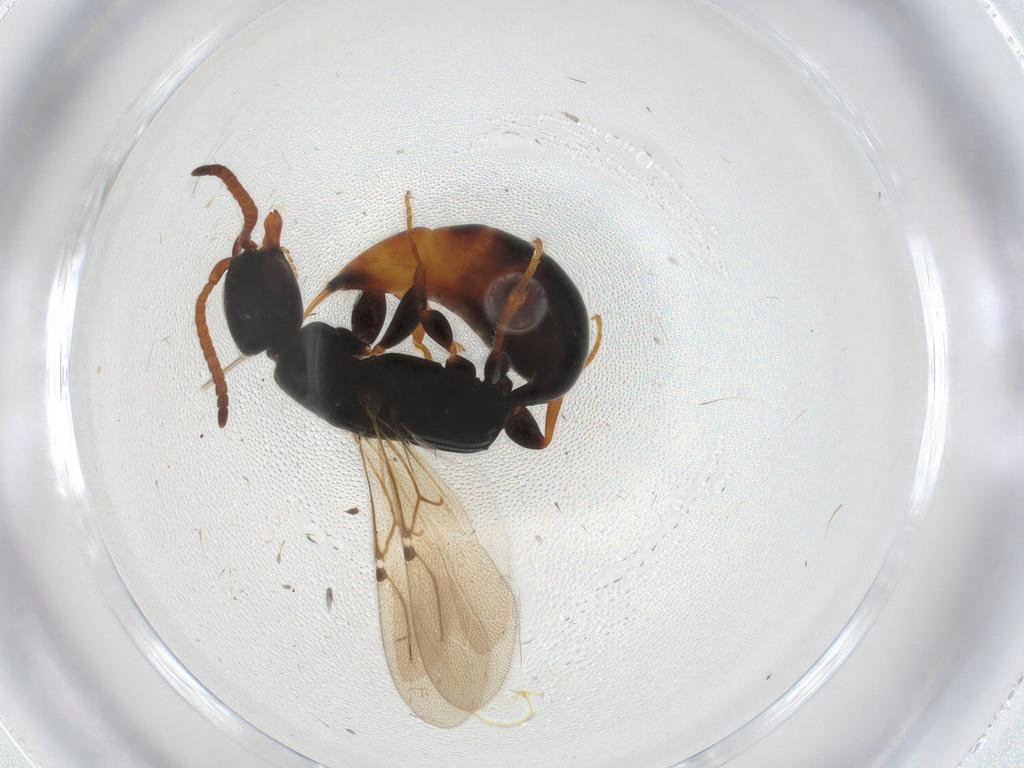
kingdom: Animalia
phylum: Arthropoda
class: Insecta
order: Hymenoptera
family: Bethylidae
